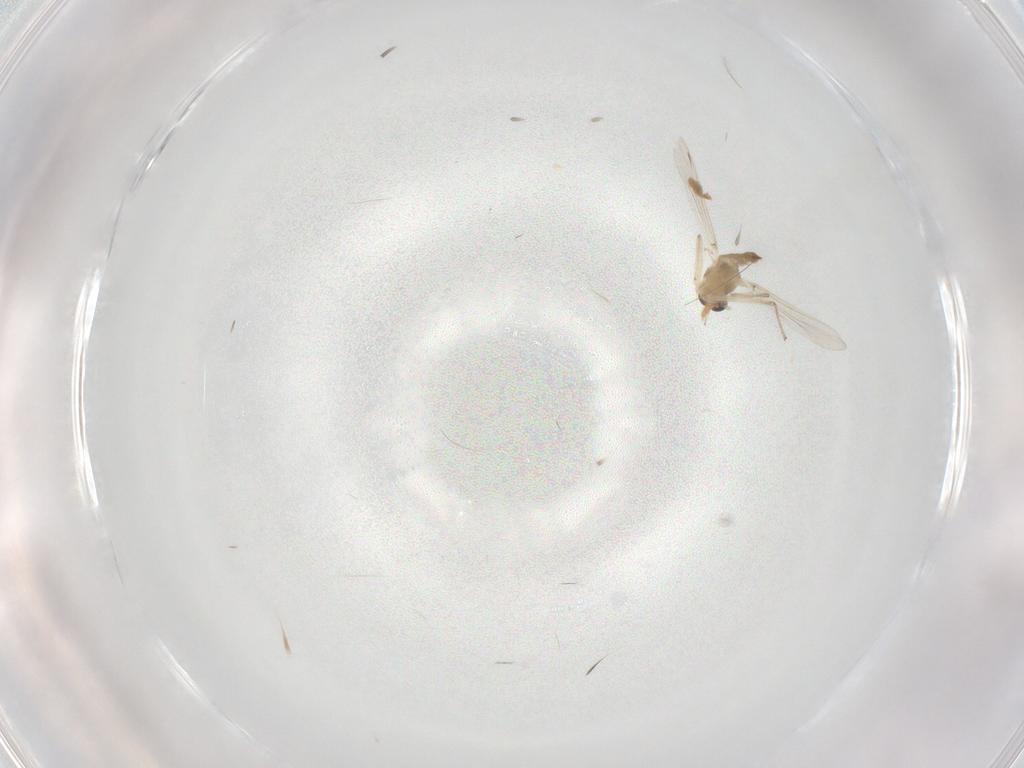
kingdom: Animalia
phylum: Arthropoda
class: Insecta
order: Diptera
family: Chironomidae
